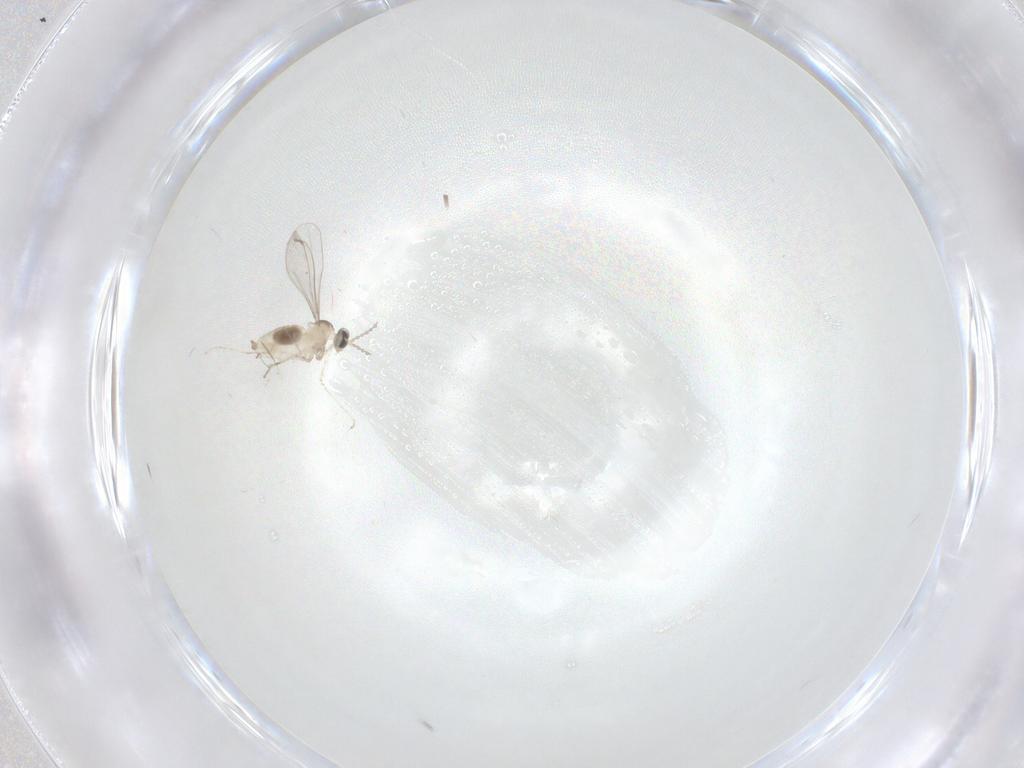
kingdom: Animalia
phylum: Arthropoda
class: Insecta
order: Diptera
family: Cecidomyiidae
